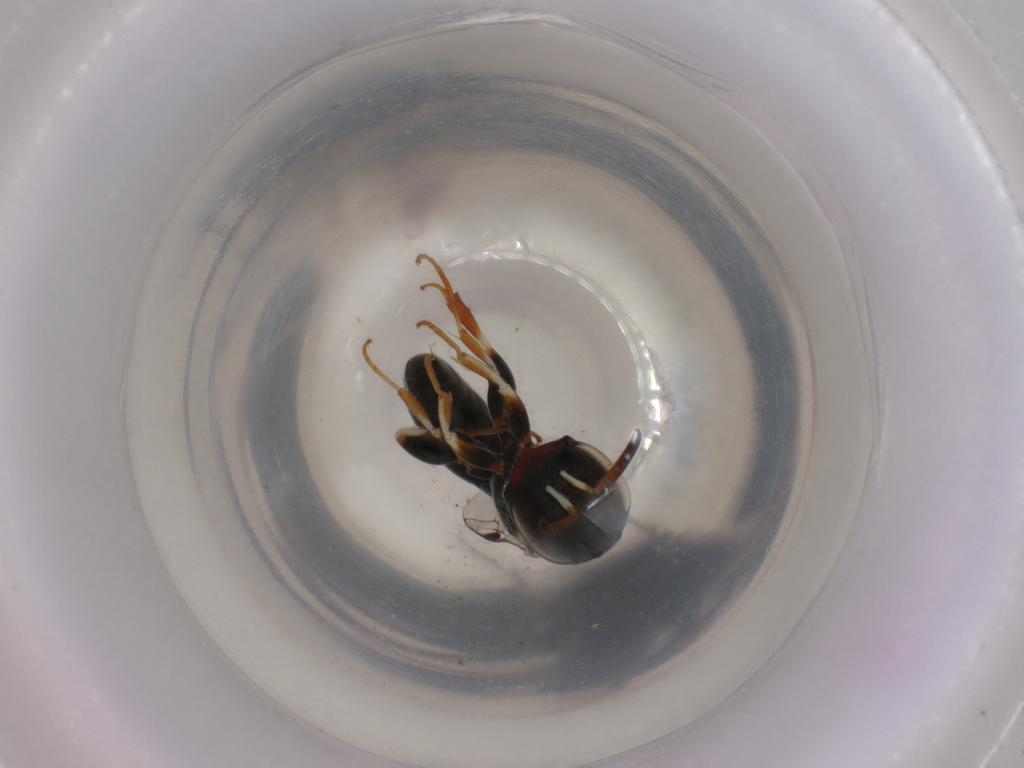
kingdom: Animalia
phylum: Arthropoda
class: Insecta
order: Hymenoptera
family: Pemphredonidae
